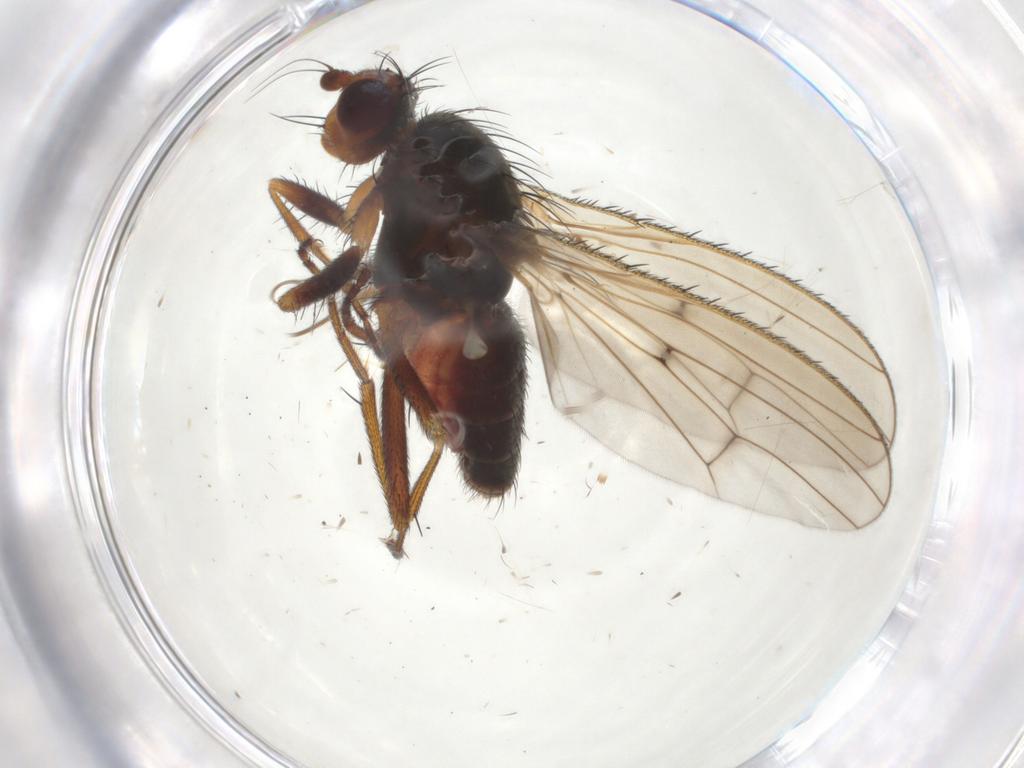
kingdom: Animalia
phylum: Arthropoda
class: Insecta
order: Diptera
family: Heleomyzidae
